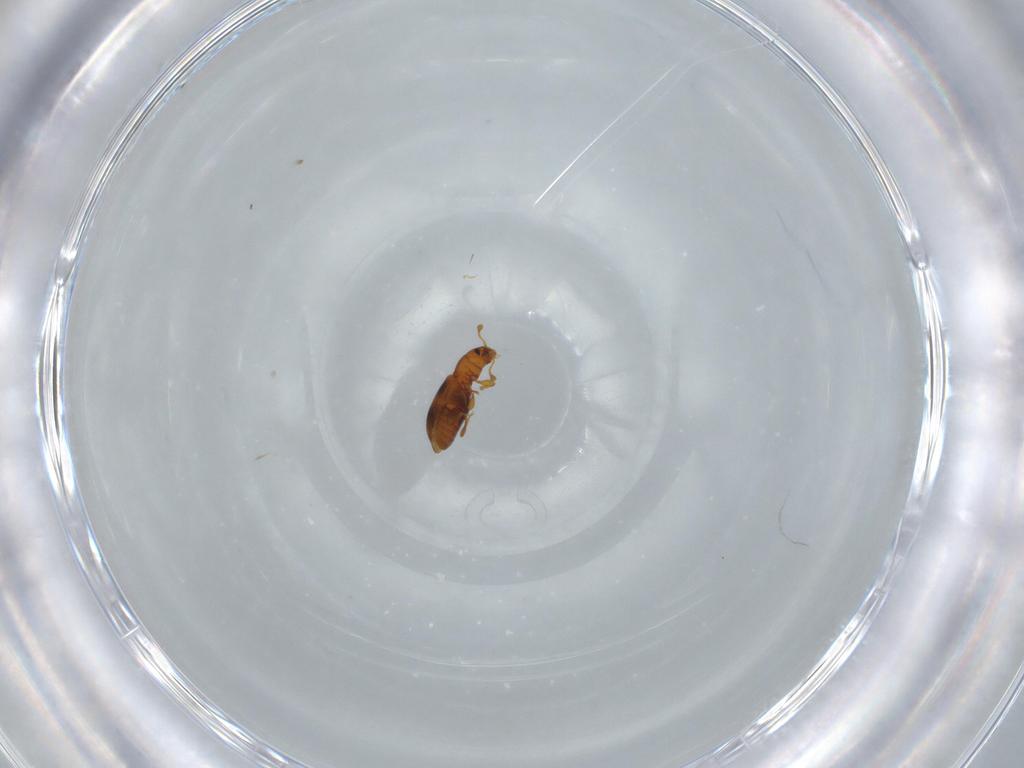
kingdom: Animalia
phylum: Arthropoda
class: Insecta
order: Coleoptera
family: Monotomidae
